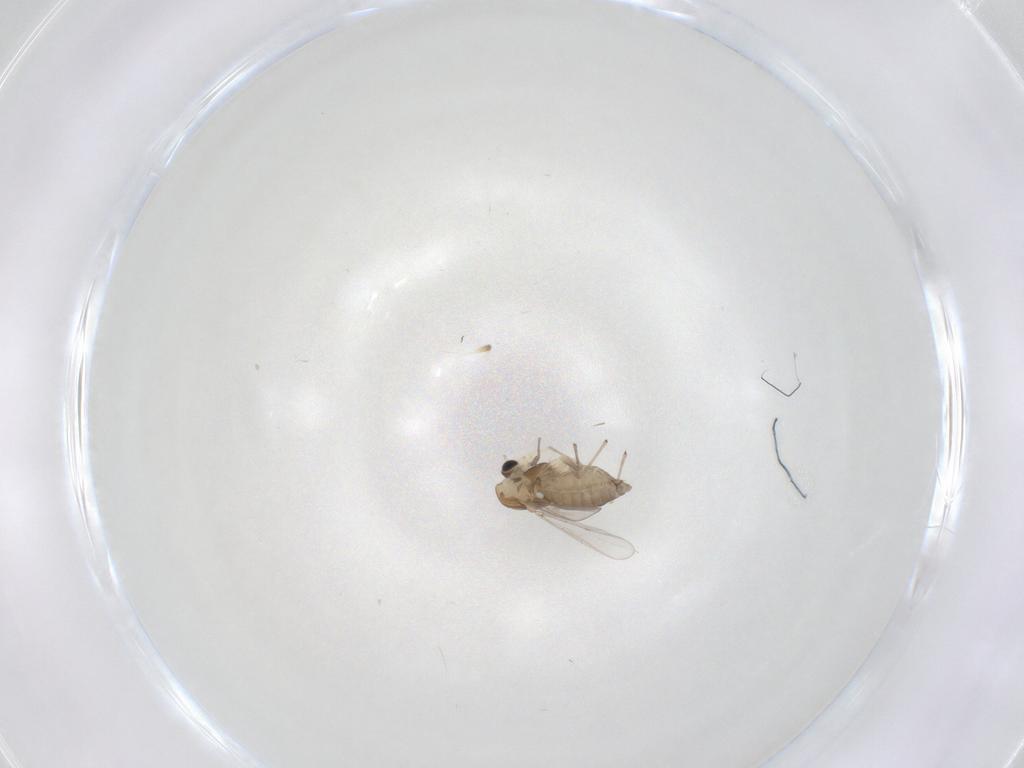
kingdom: Animalia
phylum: Arthropoda
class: Insecta
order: Diptera
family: Chironomidae
